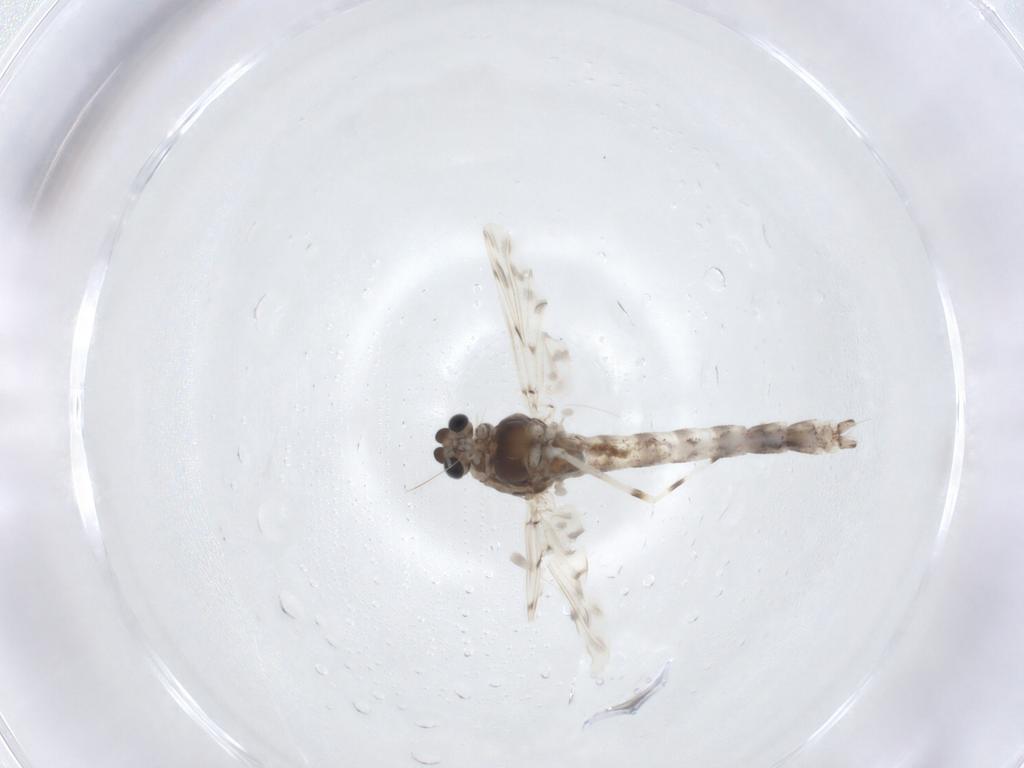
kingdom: Animalia
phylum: Arthropoda
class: Insecta
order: Diptera
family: Chironomidae
